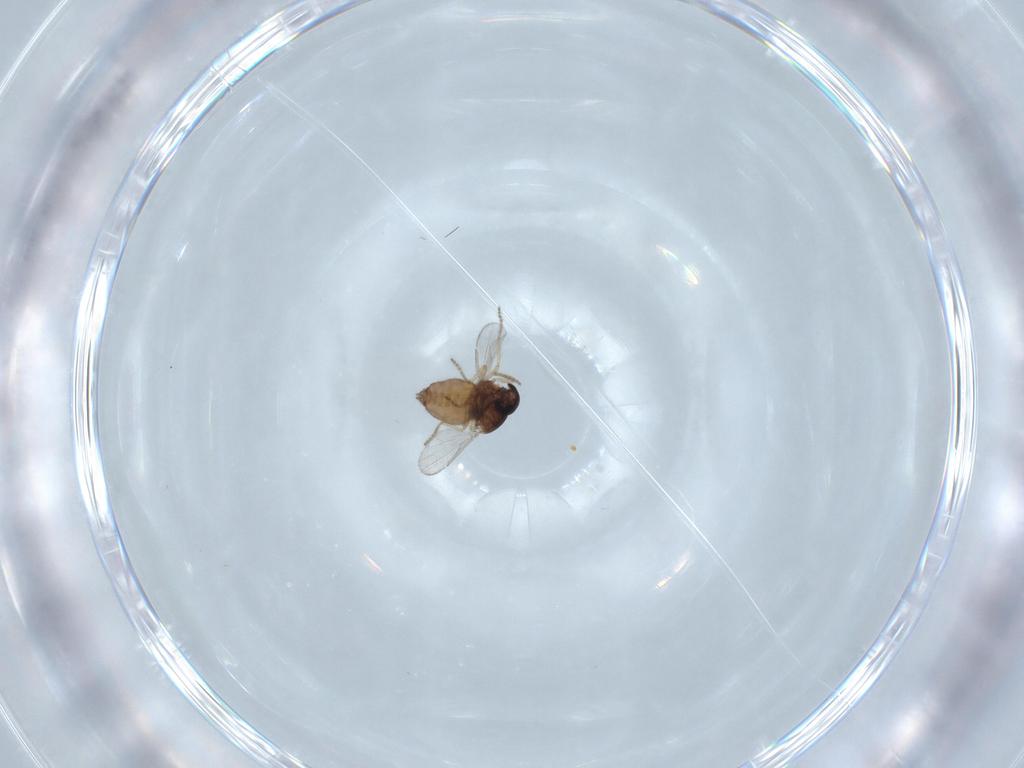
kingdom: Animalia
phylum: Arthropoda
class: Insecta
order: Diptera
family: Ceratopogonidae
